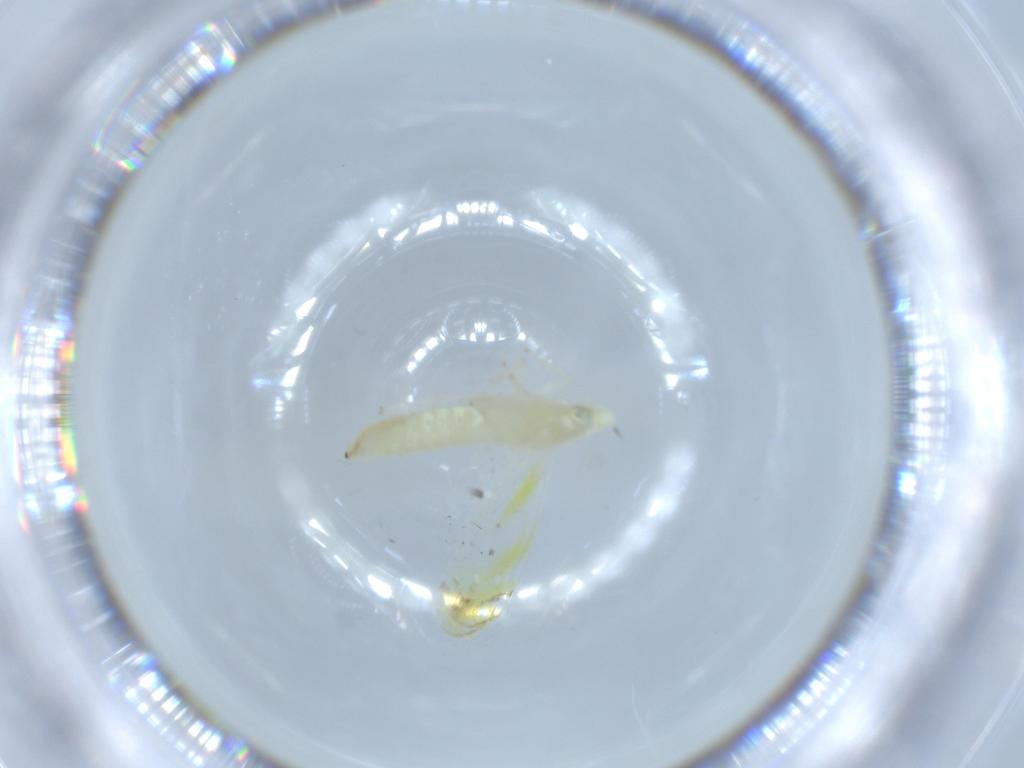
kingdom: Animalia
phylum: Arthropoda
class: Insecta
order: Hemiptera
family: Cicadellidae
